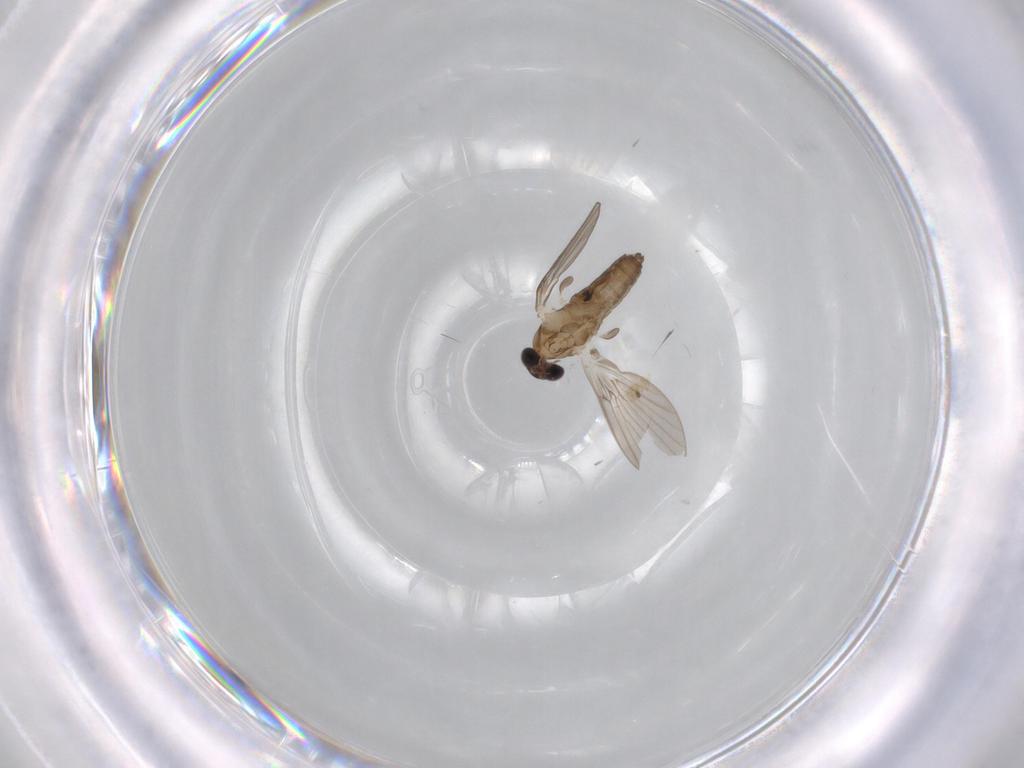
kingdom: Animalia
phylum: Arthropoda
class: Insecta
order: Diptera
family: Dolichopodidae
